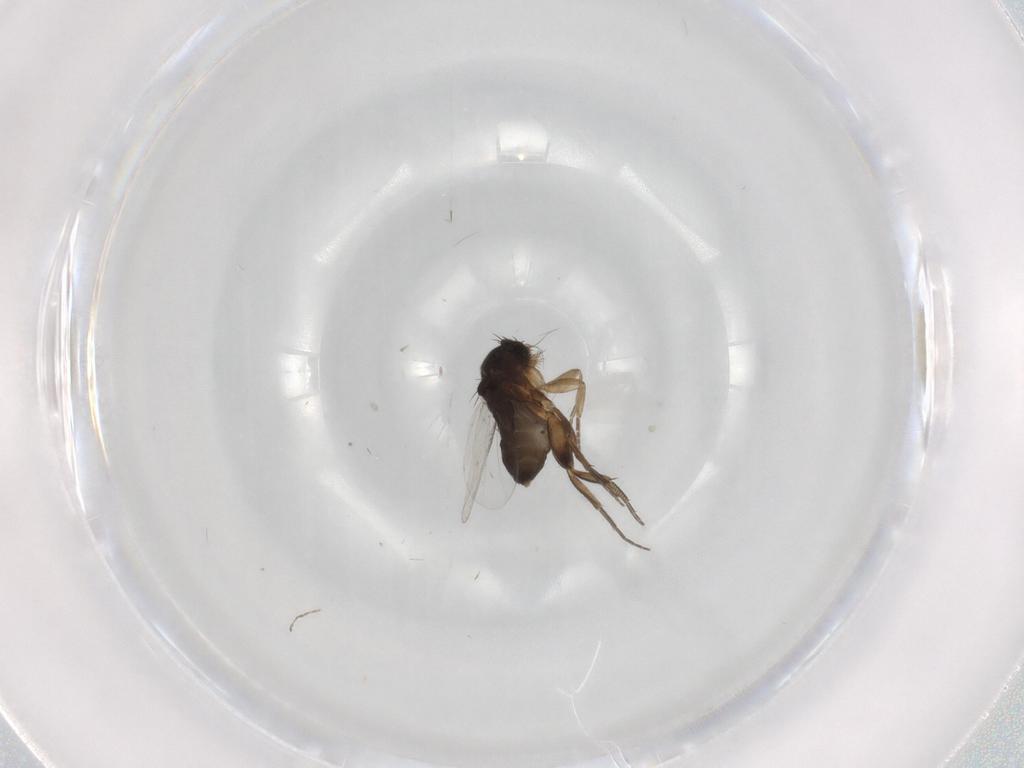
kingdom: Animalia
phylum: Arthropoda
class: Insecta
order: Diptera
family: Phoridae
